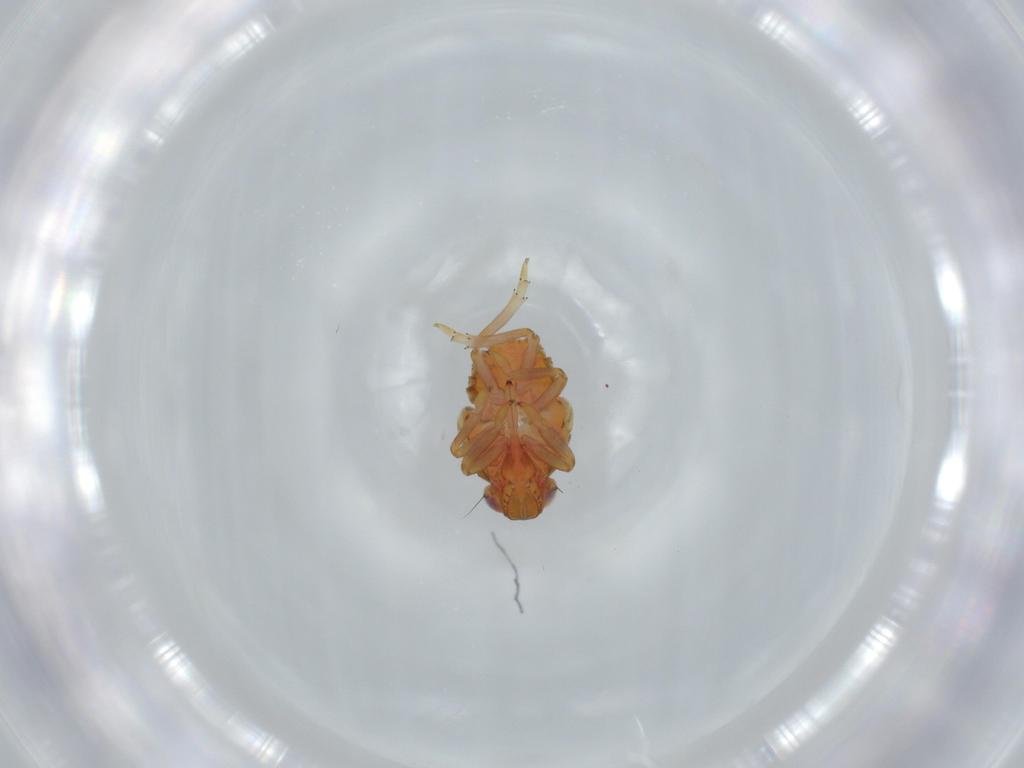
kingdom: Animalia
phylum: Arthropoda
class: Insecta
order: Hemiptera
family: Issidae
